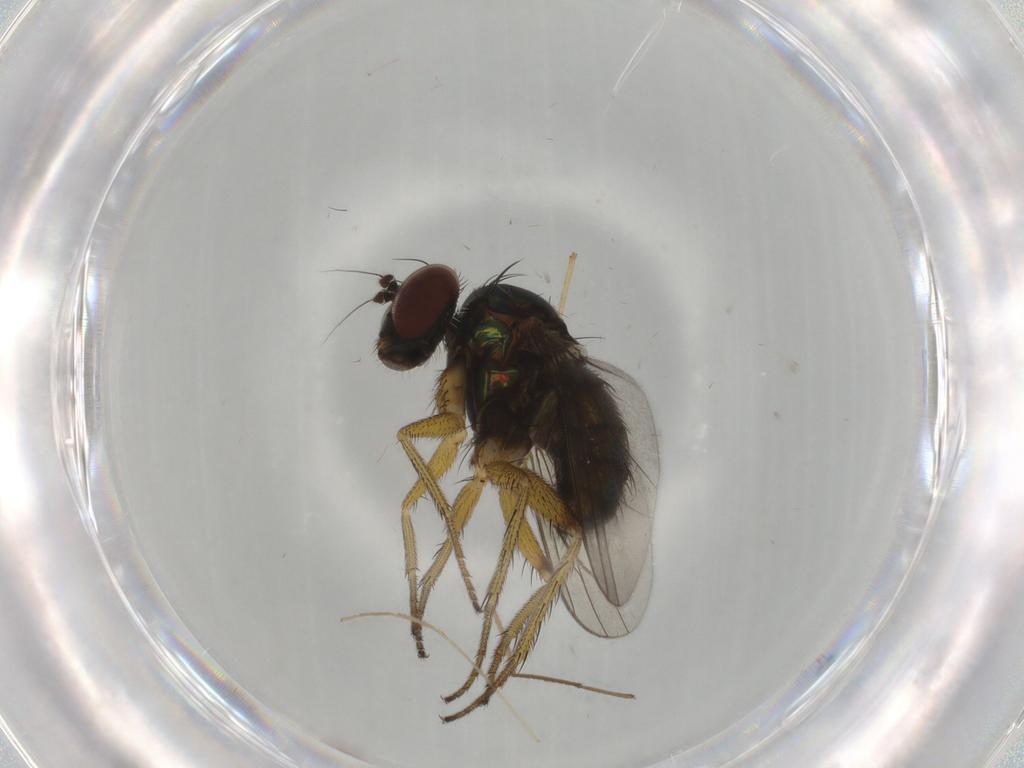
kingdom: Animalia
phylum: Arthropoda
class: Insecta
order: Diptera
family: Dolichopodidae
